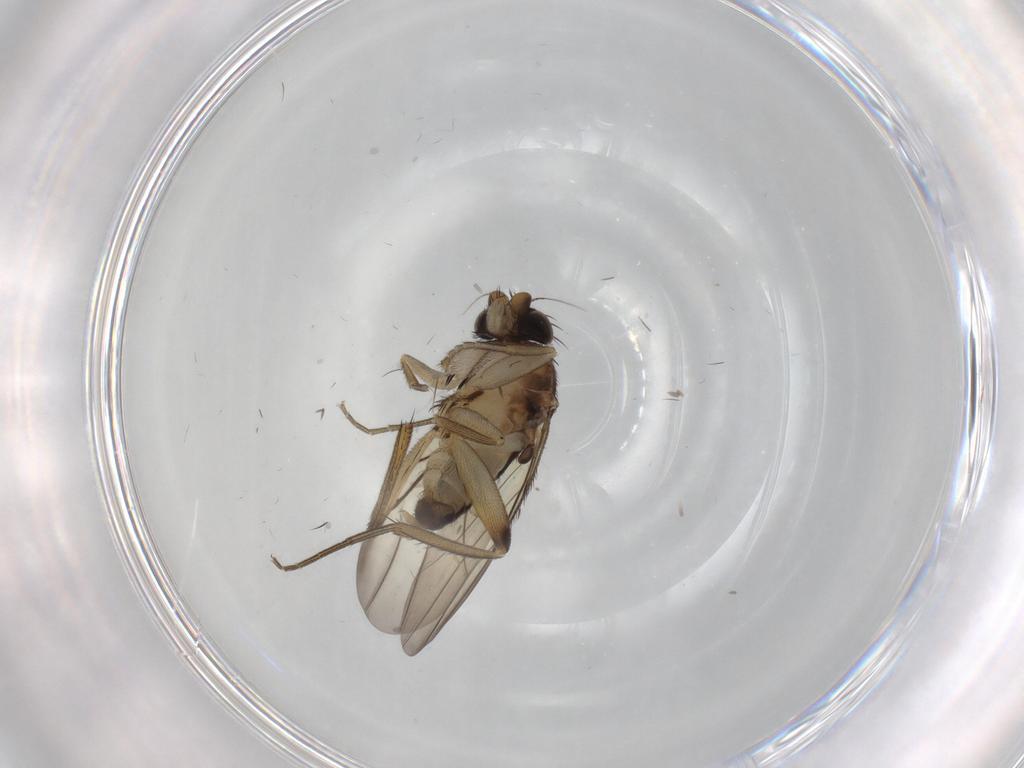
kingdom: Animalia
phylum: Arthropoda
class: Insecta
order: Diptera
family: Phoridae
